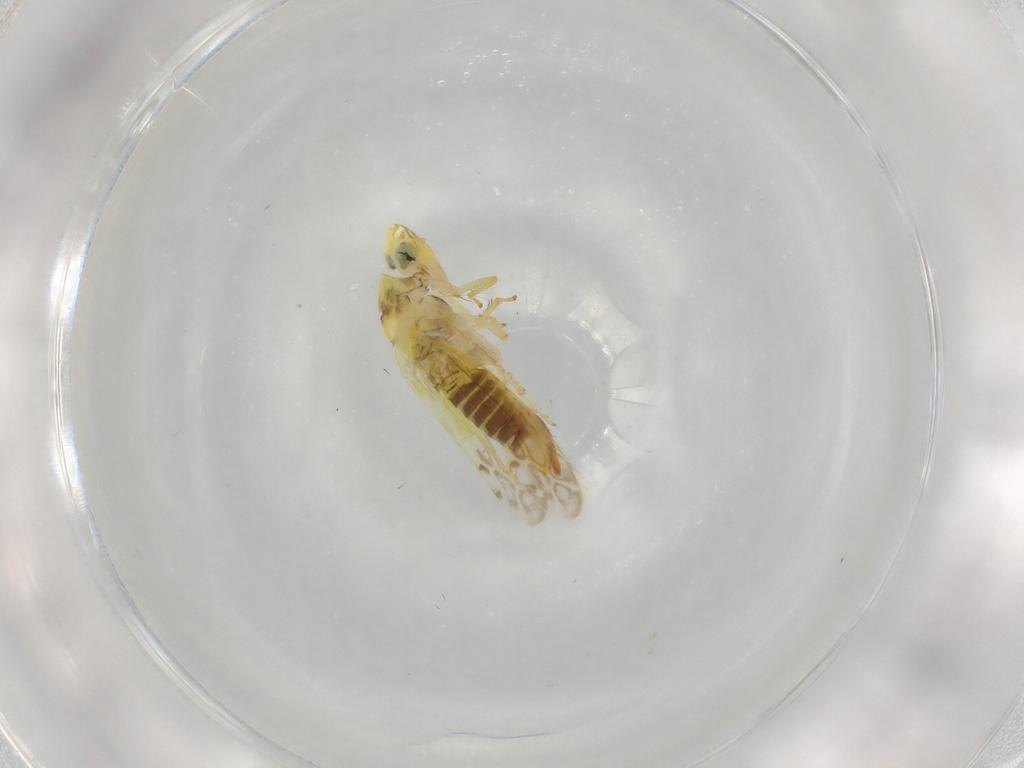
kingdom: Animalia
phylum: Arthropoda
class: Insecta
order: Hemiptera
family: Cicadellidae
